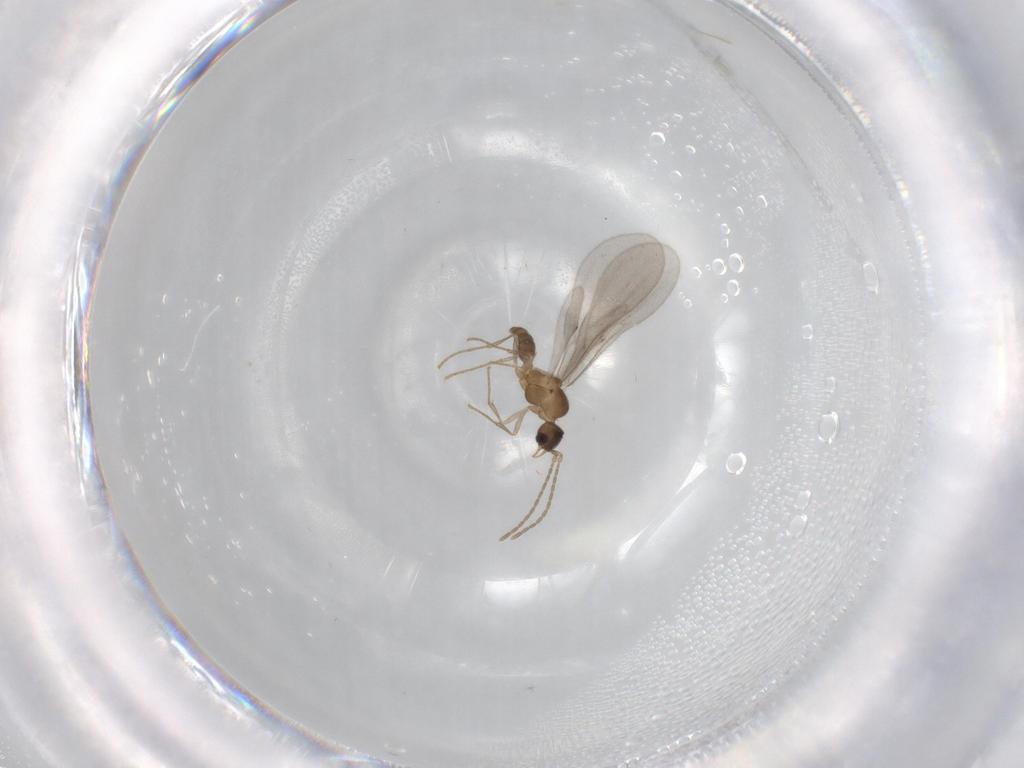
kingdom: Animalia
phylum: Arthropoda
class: Insecta
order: Hymenoptera
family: Formicidae
